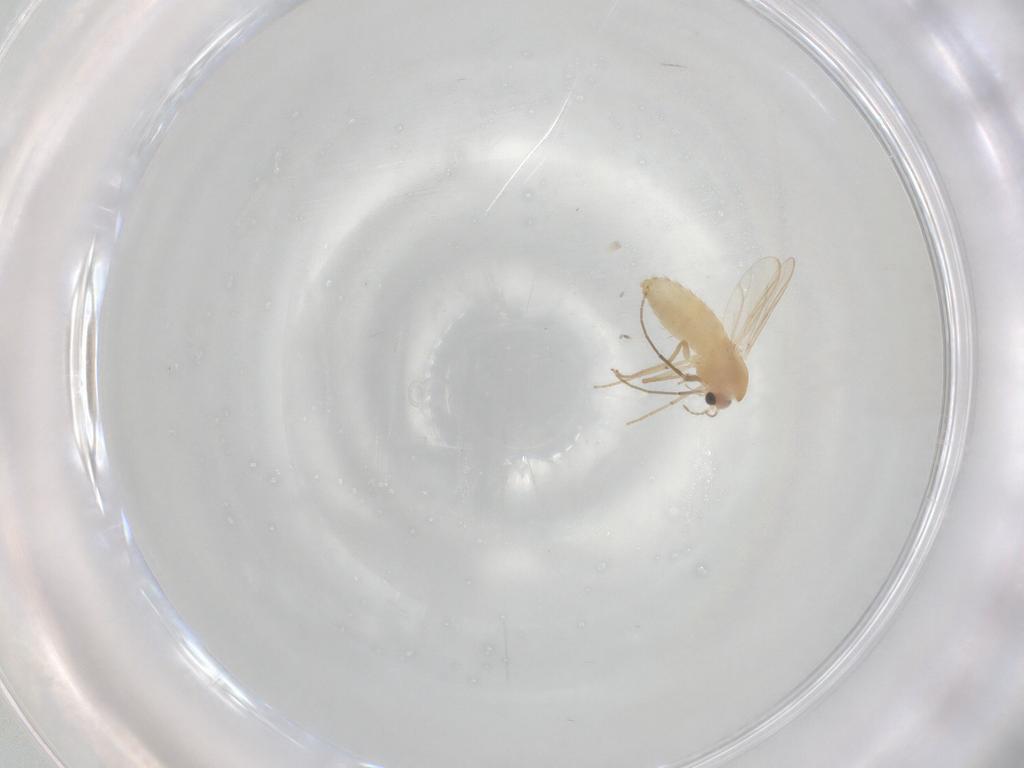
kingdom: Animalia
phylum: Arthropoda
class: Insecta
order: Diptera
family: Chironomidae
